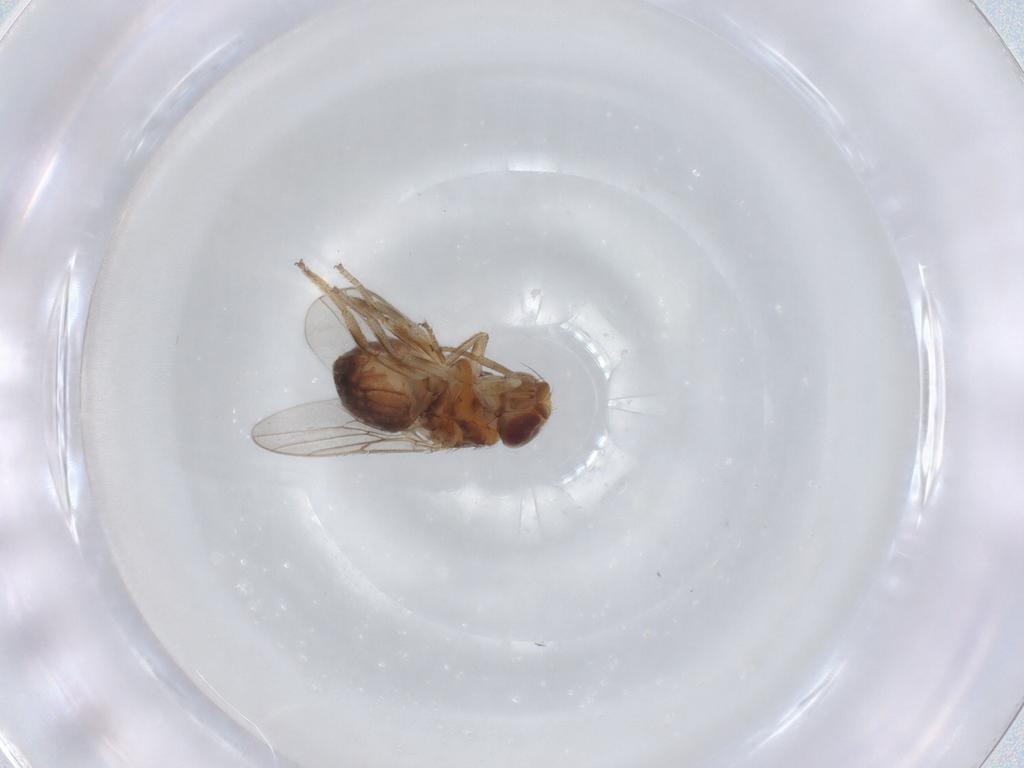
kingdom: Animalia
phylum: Arthropoda
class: Insecta
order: Diptera
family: Chloropidae
